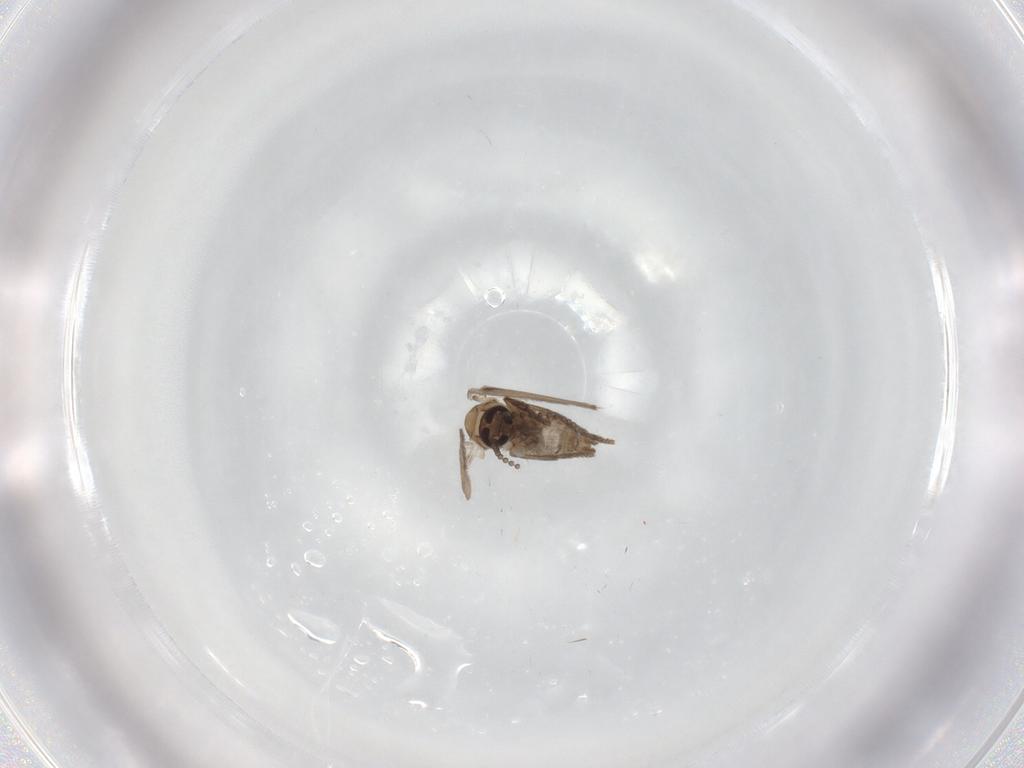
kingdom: Animalia
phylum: Arthropoda
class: Insecta
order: Diptera
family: Psychodidae
